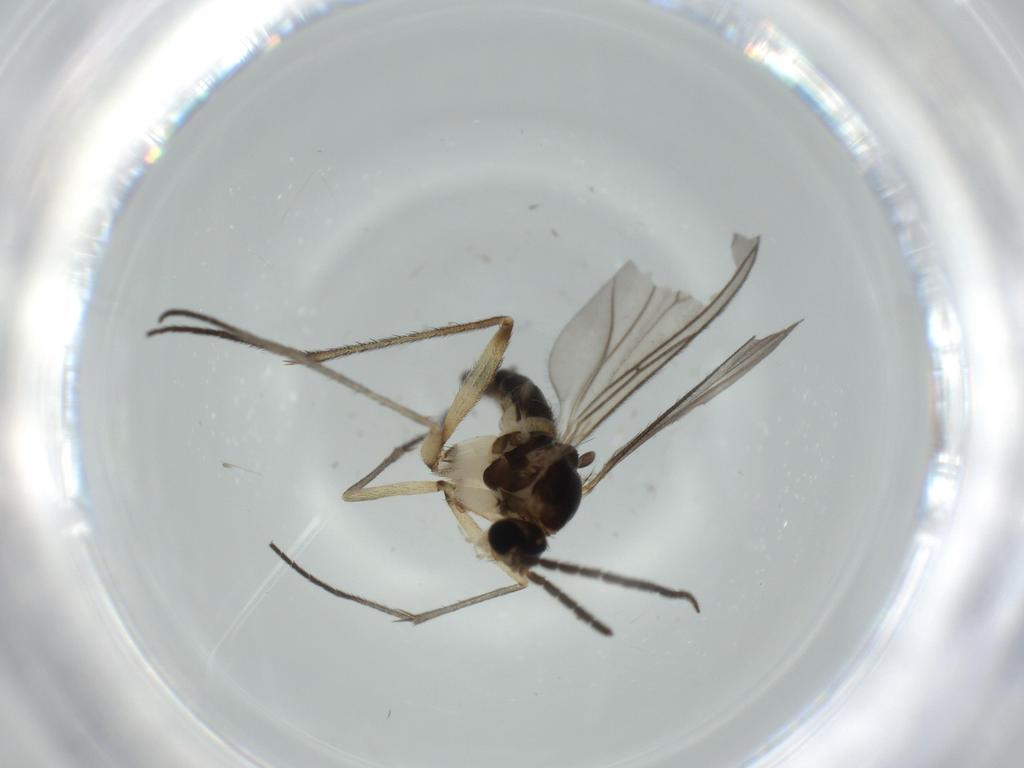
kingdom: Animalia
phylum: Arthropoda
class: Insecta
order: Diptera
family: Sciaridae
